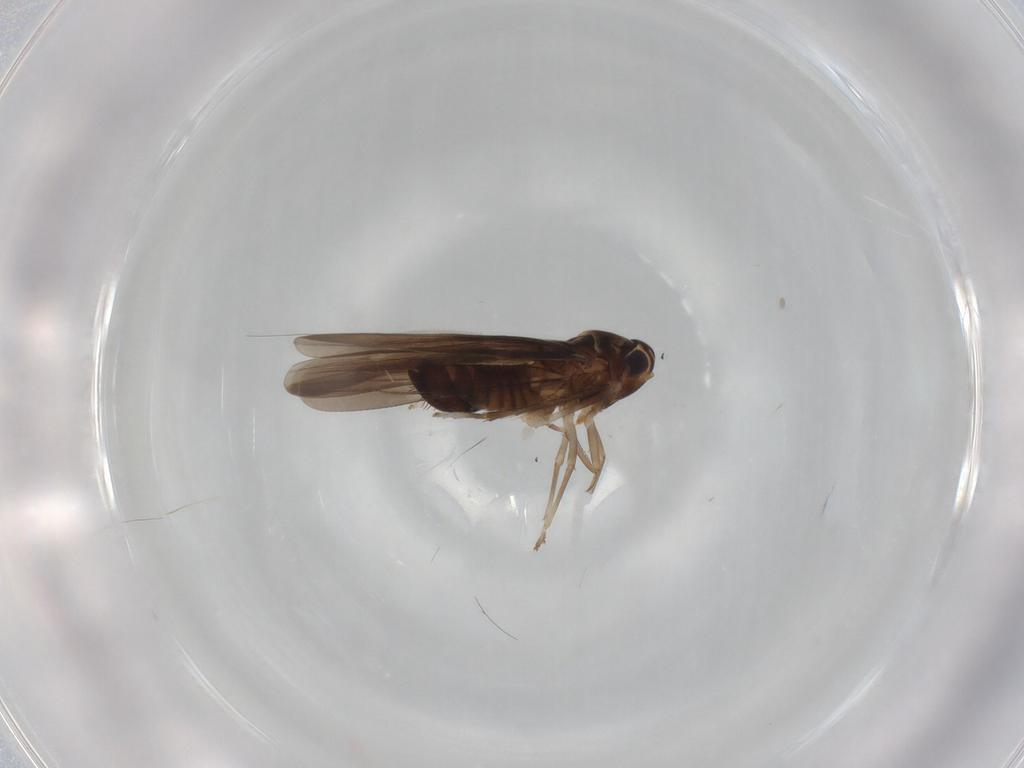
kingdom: Animalia
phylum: Arthropoda
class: Insecta
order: Hemiptera
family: Cicadellidae
